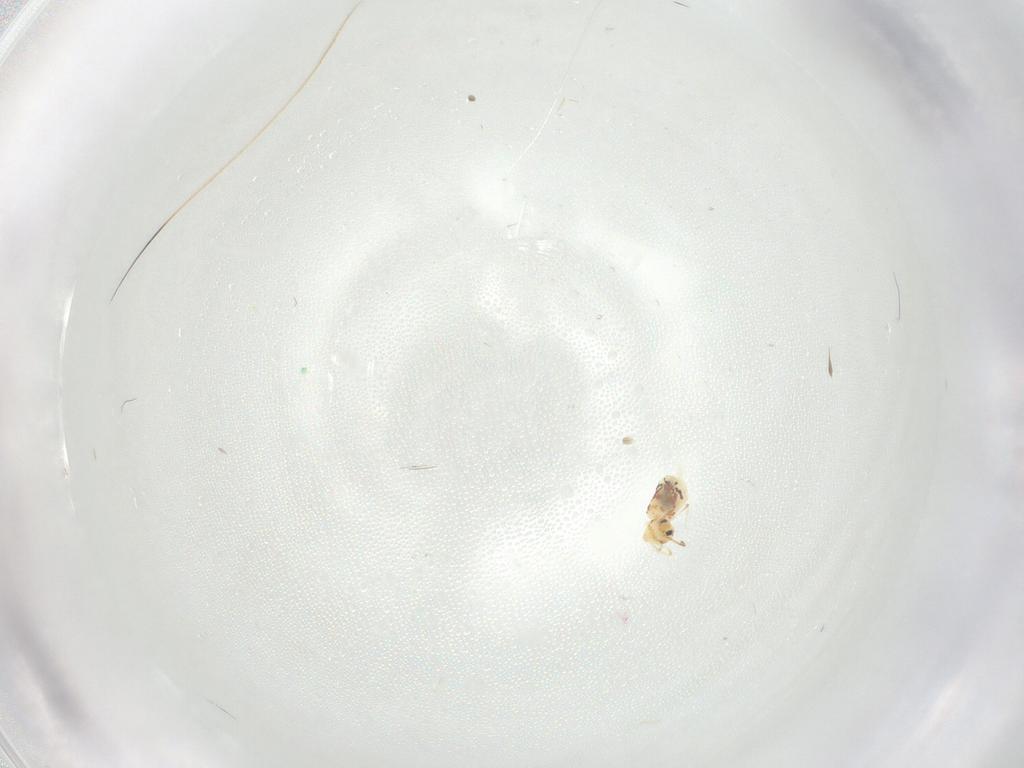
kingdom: Animalia
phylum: Arthropoda
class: Collembola
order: Symphypleona
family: Bourletiellidae
